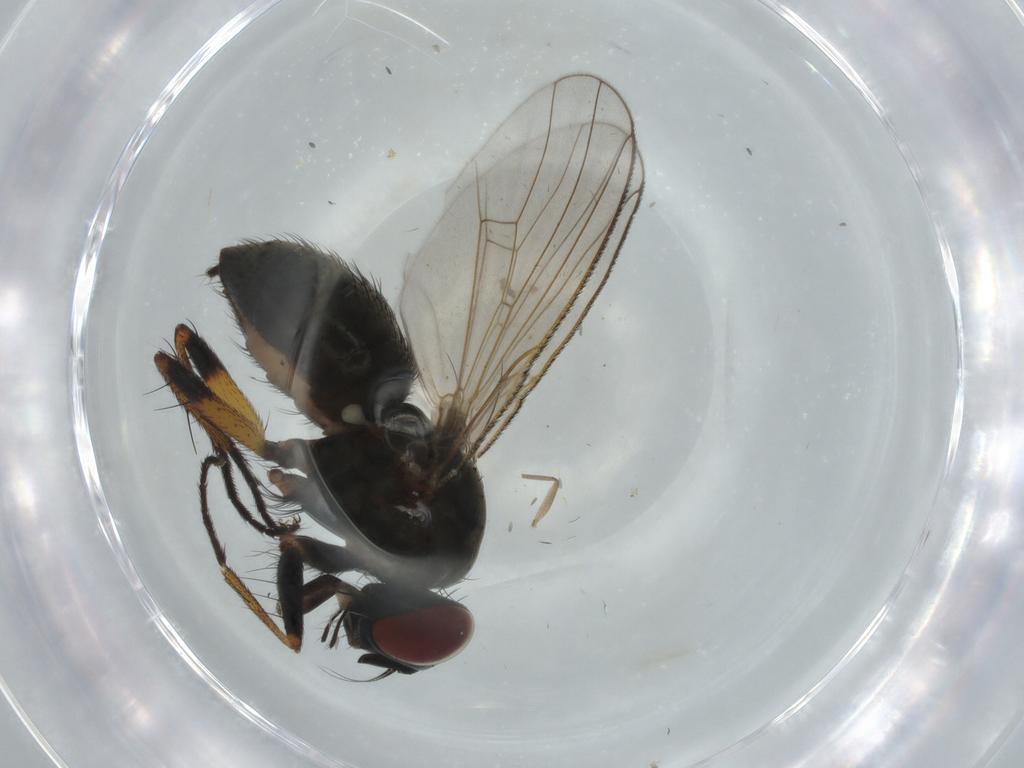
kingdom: Animalia
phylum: Arthropoda
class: Insecta
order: Diptera
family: Muscidae
